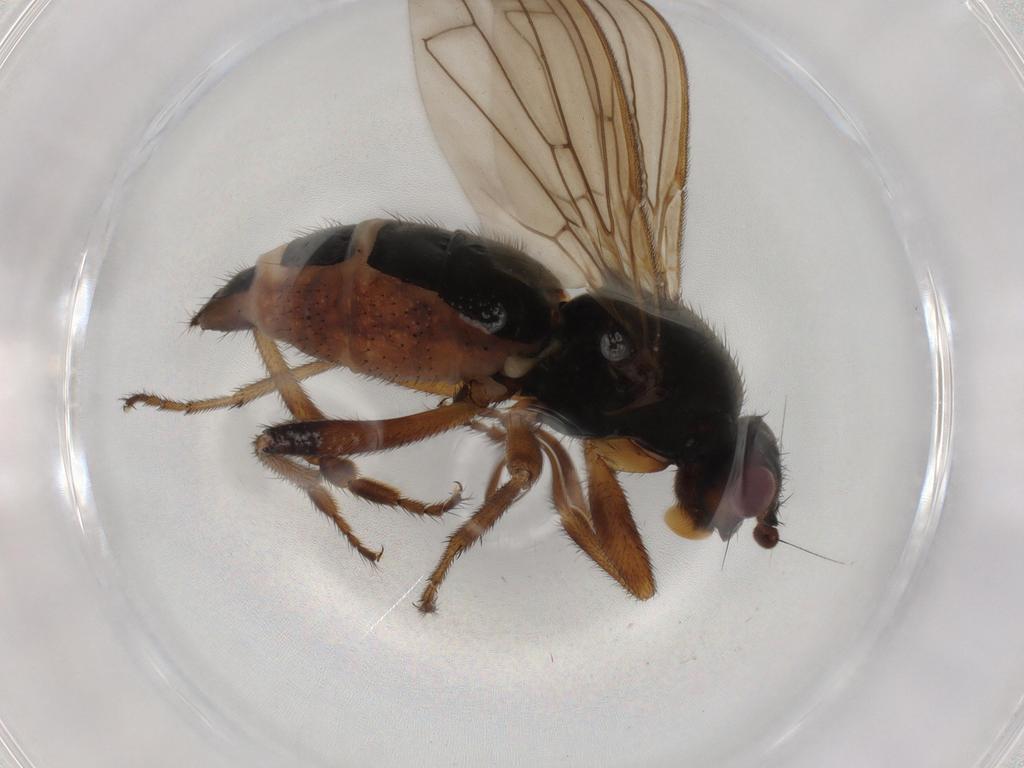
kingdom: Animalia
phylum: Arthropoda
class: Insecta
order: Diptera
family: Sphaeroceridae
